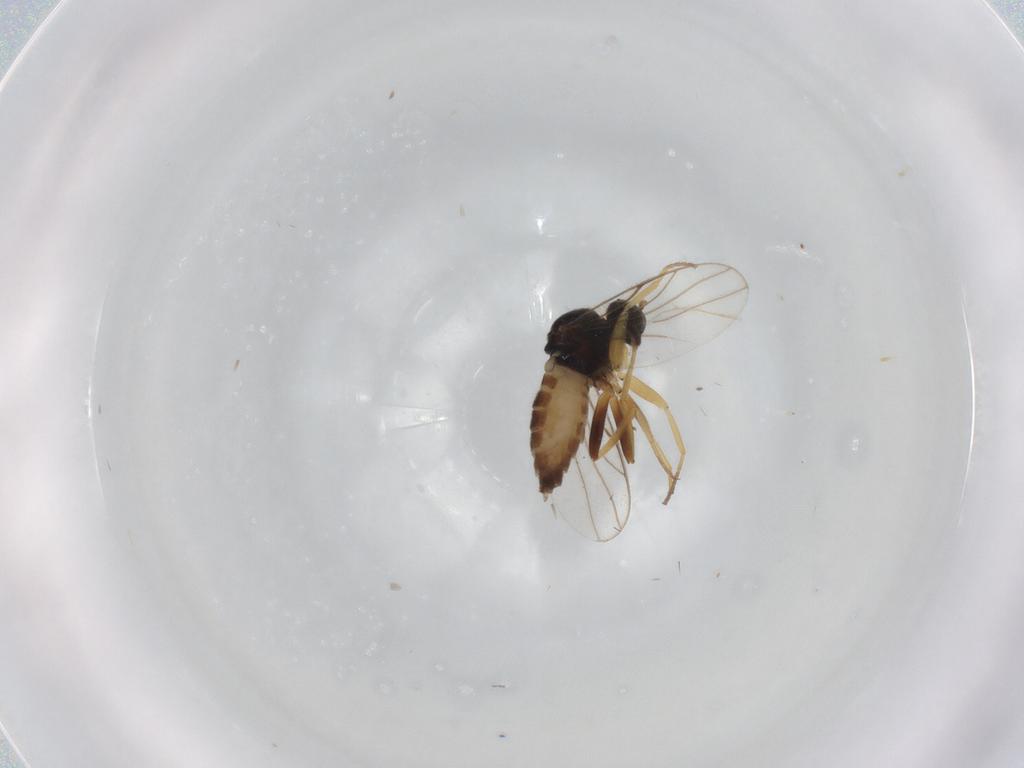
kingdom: Animalia
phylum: Arthropoda
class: Insecta
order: Diptera
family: Hybotidae
